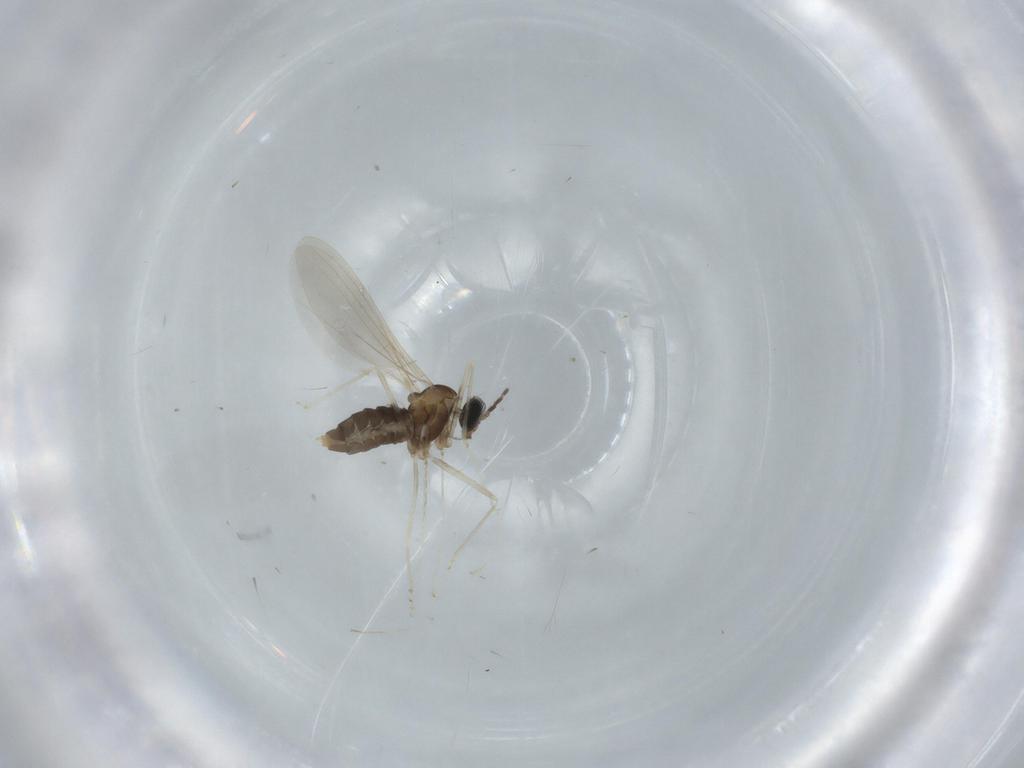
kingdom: Animalia
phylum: Arthropoda
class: Insecta
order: Diptera
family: Cecidomyiidae
